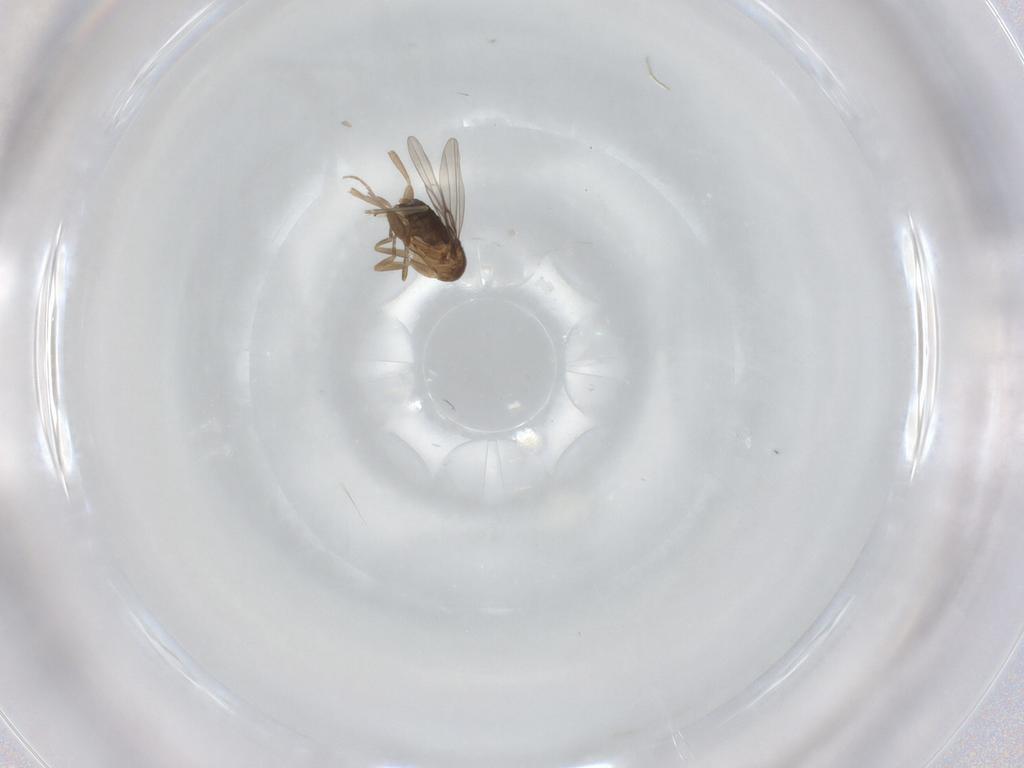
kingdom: Animalia
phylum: Arthropoda
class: Insecta
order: Diptera
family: Phoridae
